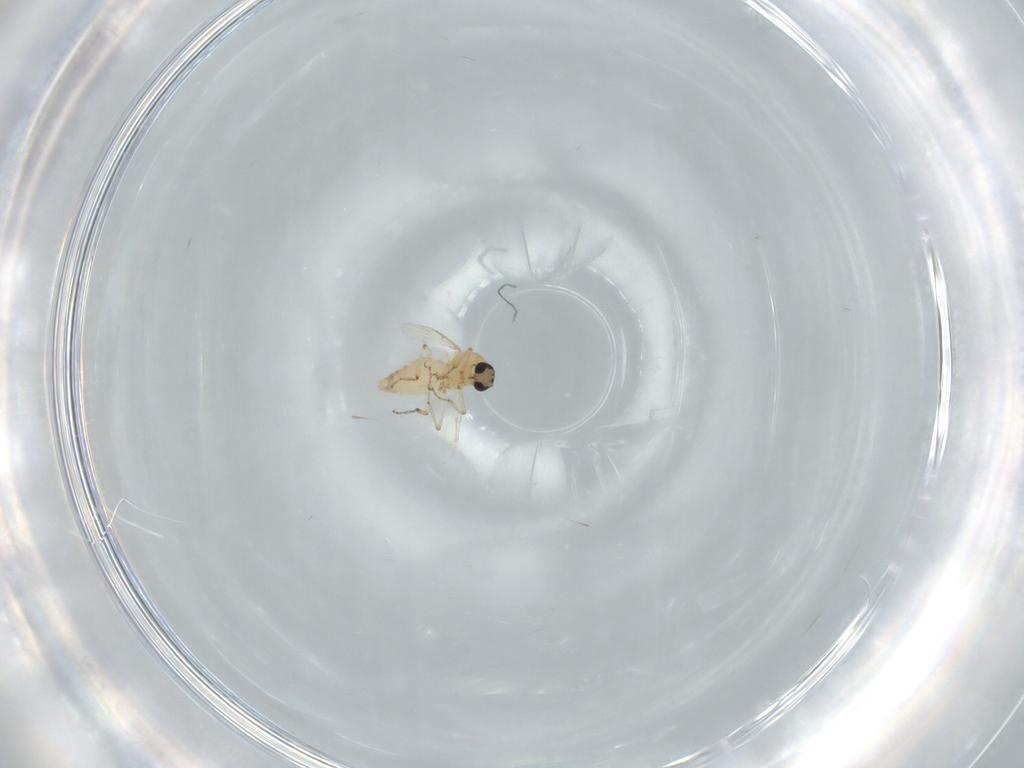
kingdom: Animalia
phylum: Arthropoda
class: Insecta
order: Diptera
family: Ceratopogonidae
